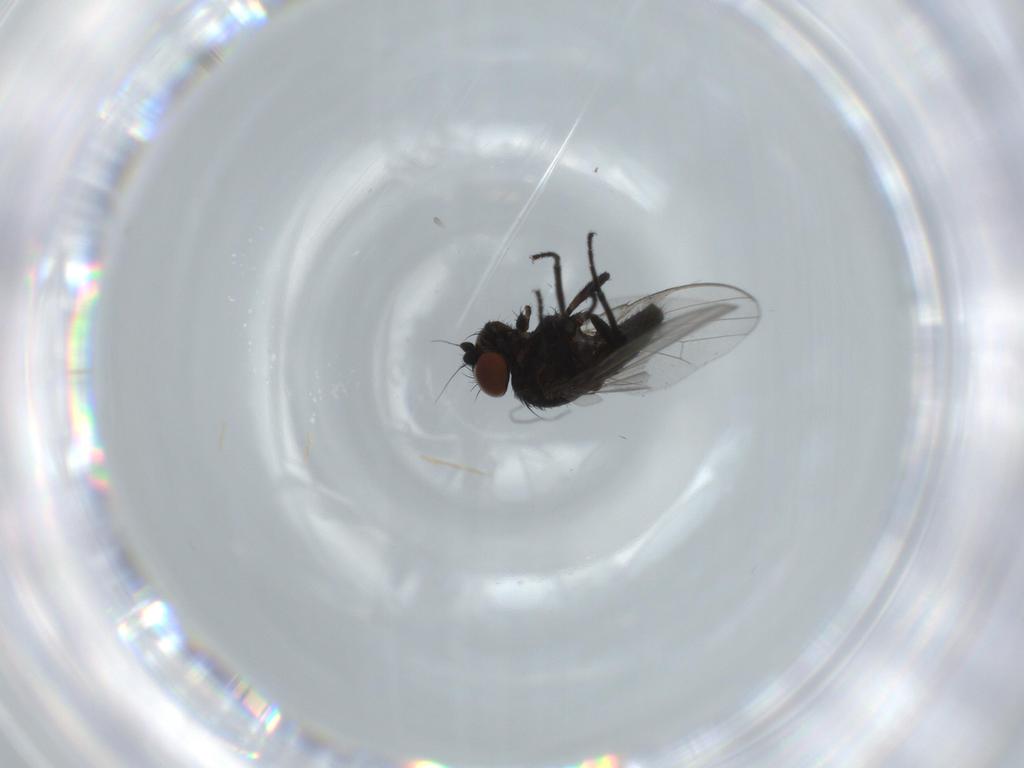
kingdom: Animalia
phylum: Arthropoda
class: Insecta
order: Diptera
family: Milichiidae
